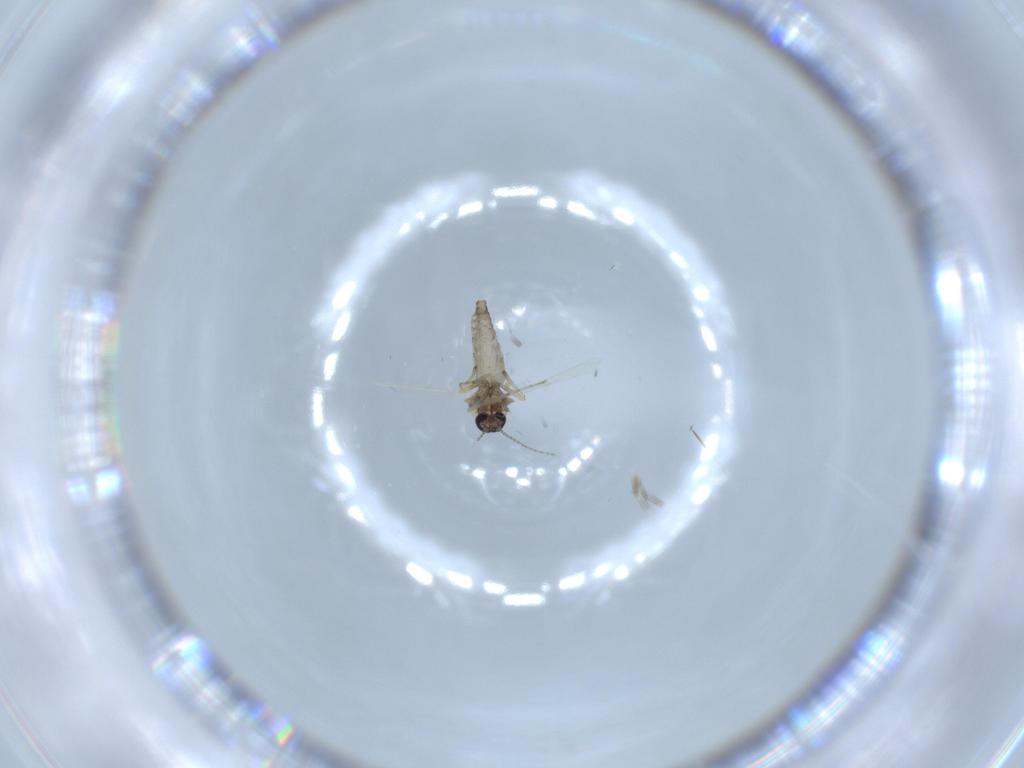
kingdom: Animalia
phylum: Arthropoda
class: Insecta
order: Diptera
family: Ceratopogonidae
